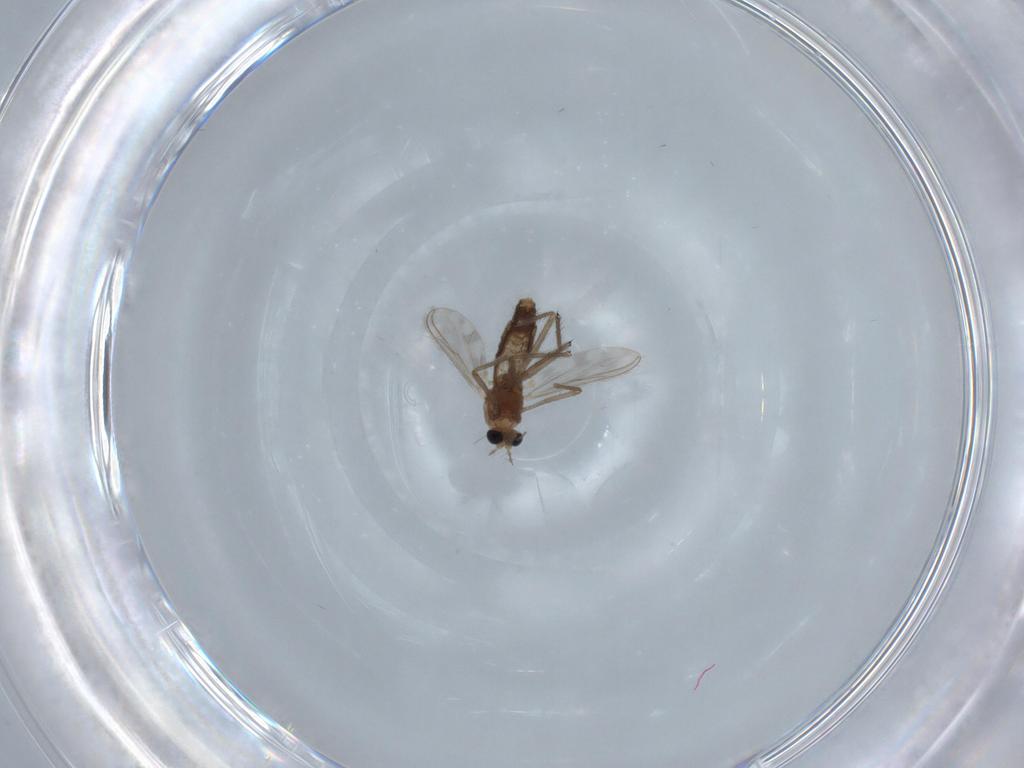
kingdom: Animalia
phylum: Arthropoda
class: Insecta
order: Diptera
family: Chironomidae
